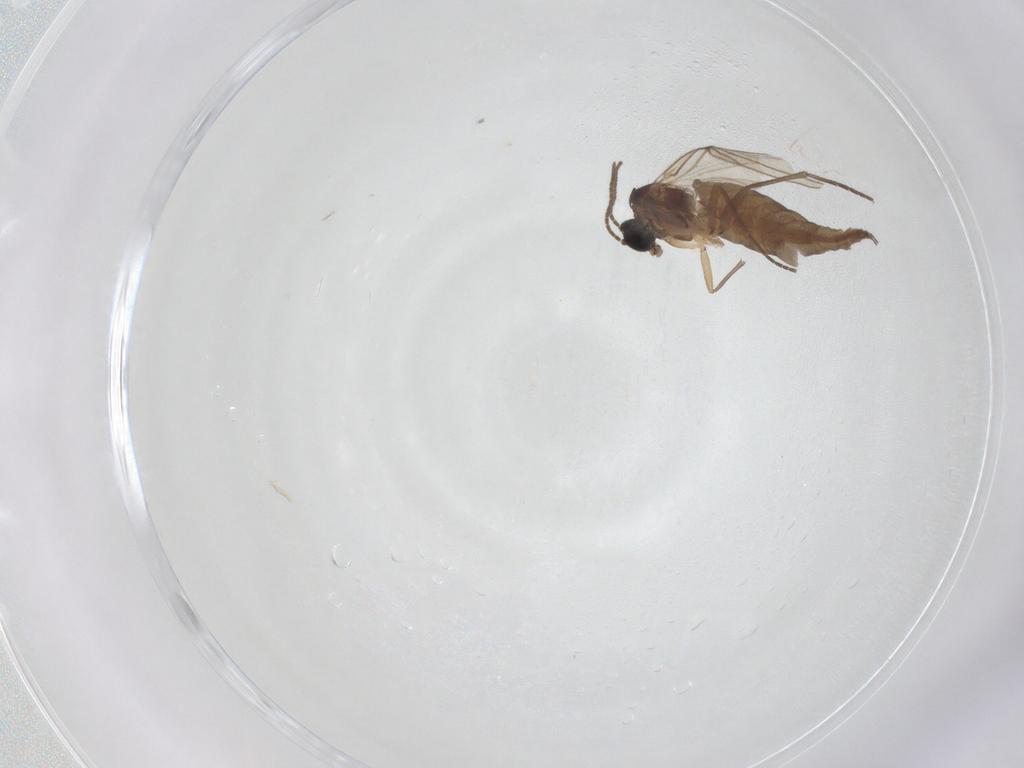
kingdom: Animalia
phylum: Arthropoda
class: Insecta
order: Diptera
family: Sciaridae
